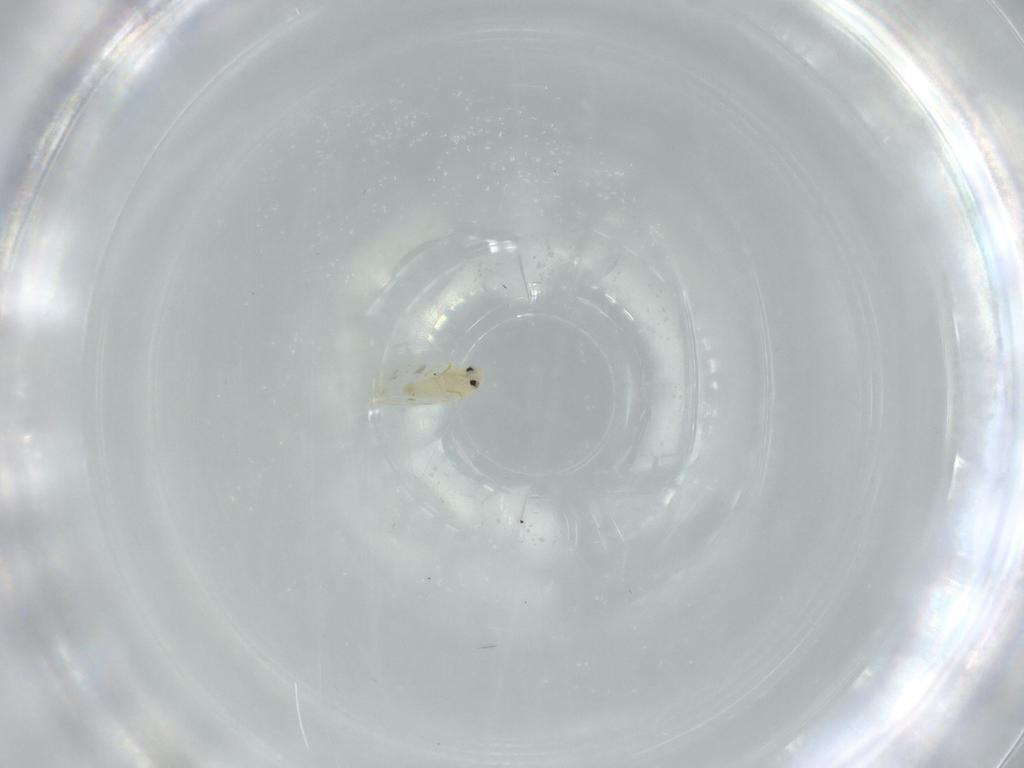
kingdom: Animalia
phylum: Arthropoda
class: Insecta
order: Hemiptera
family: Aleyrodidae
